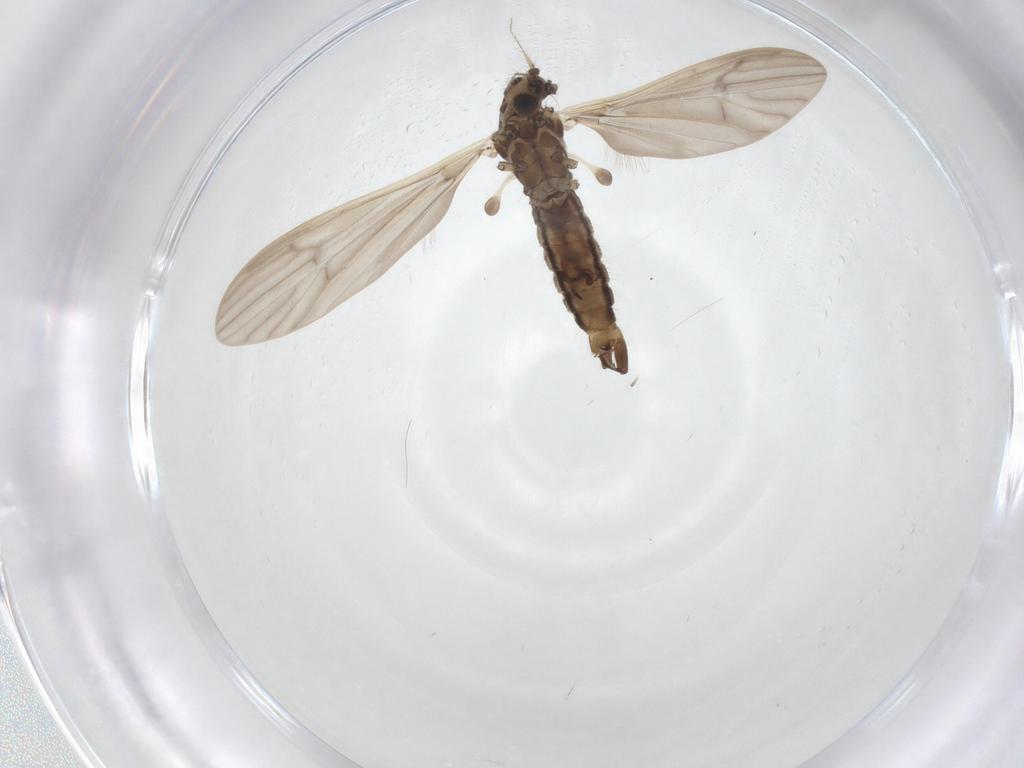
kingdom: Animalia
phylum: Arthropoda
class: Insecta
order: Diptera
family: Limoniidae
